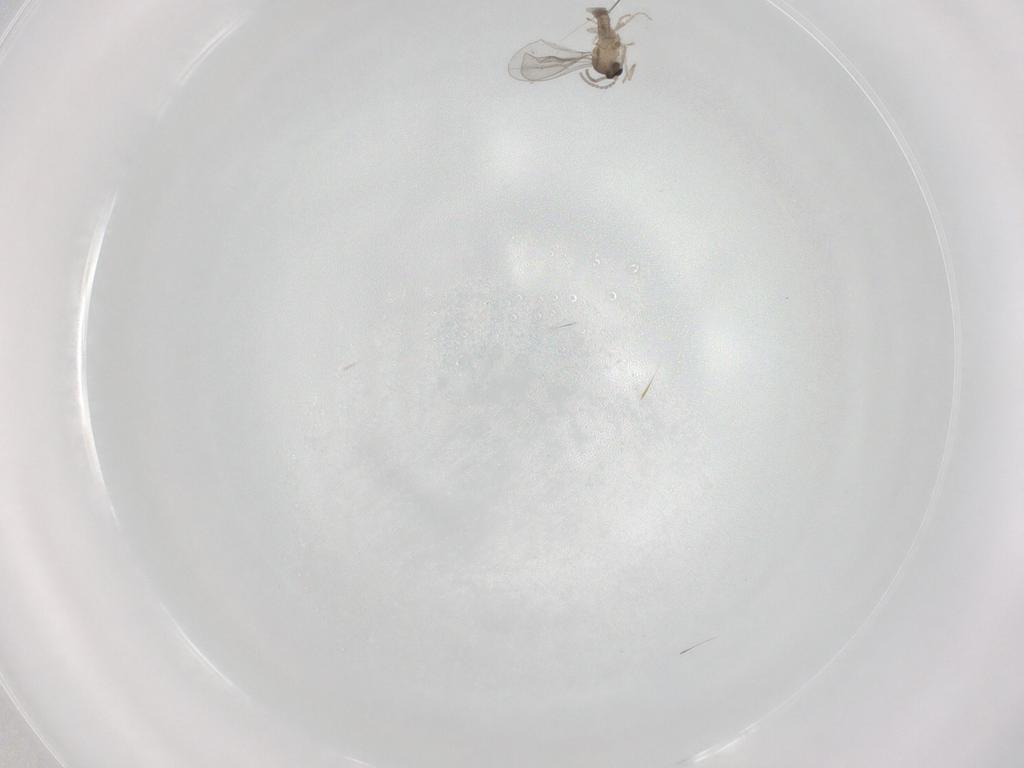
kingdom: Animalia
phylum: Arthropoda
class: Insecta
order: Diptera
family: Cecidomyiidae
